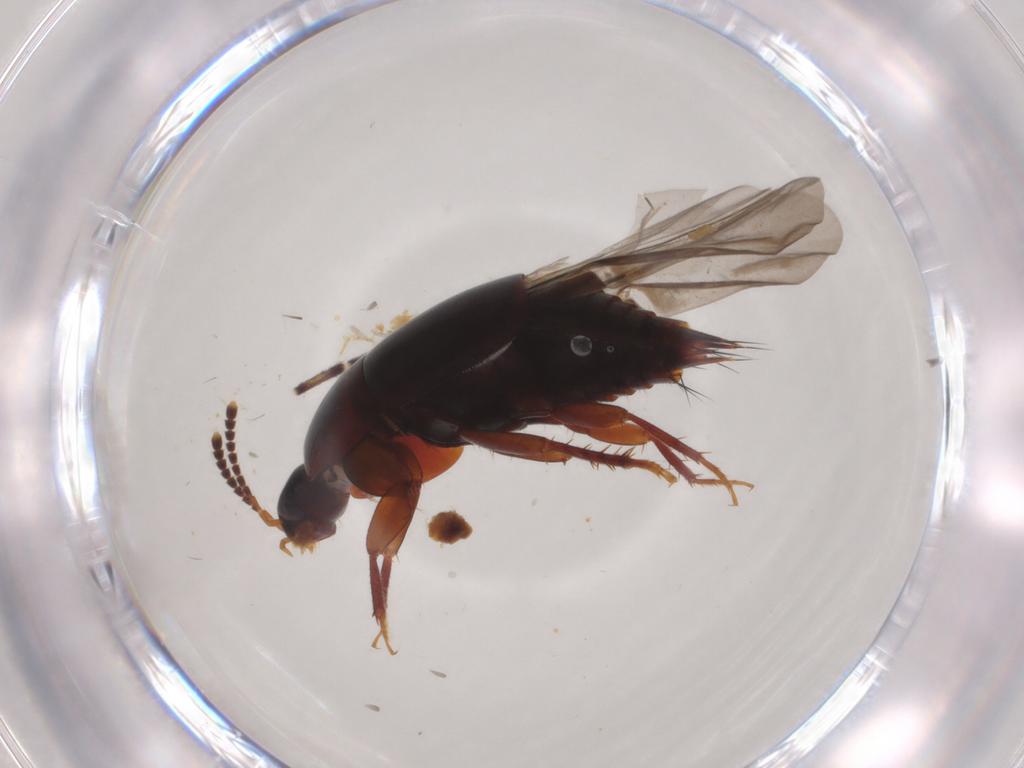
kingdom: Animalia
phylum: Arthropoda
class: Insecta
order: Coleoptera
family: Staphylinidae
